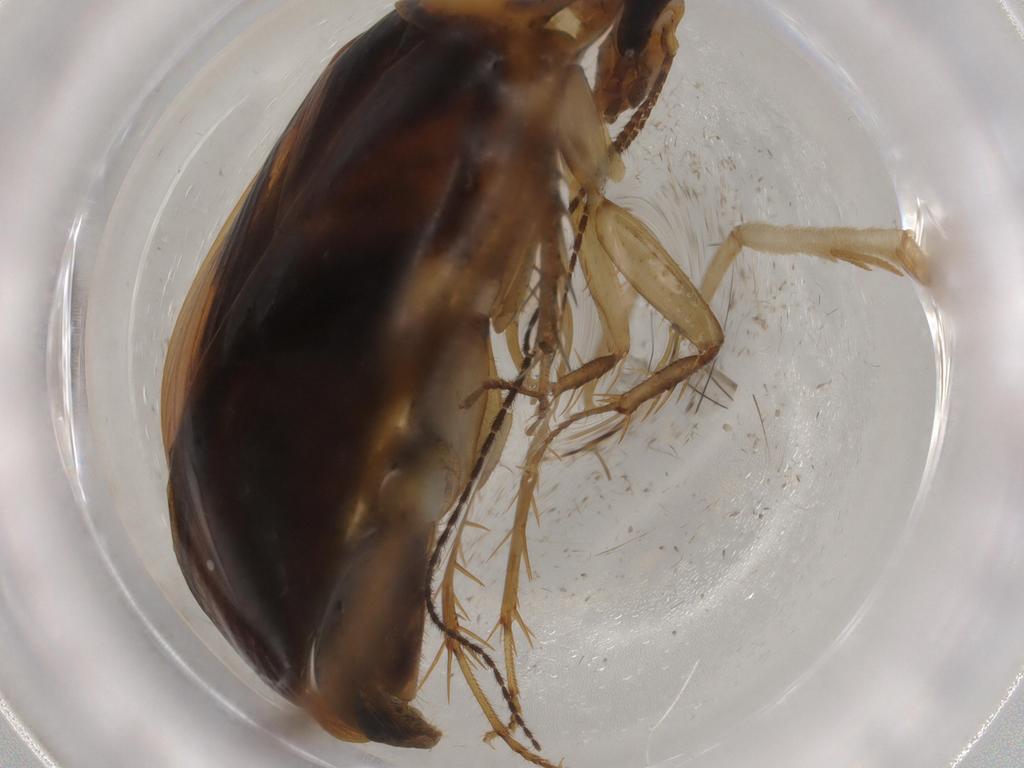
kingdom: Animalia
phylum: Arthropoda
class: Insecta
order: Blattodea
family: Ectobiidae
